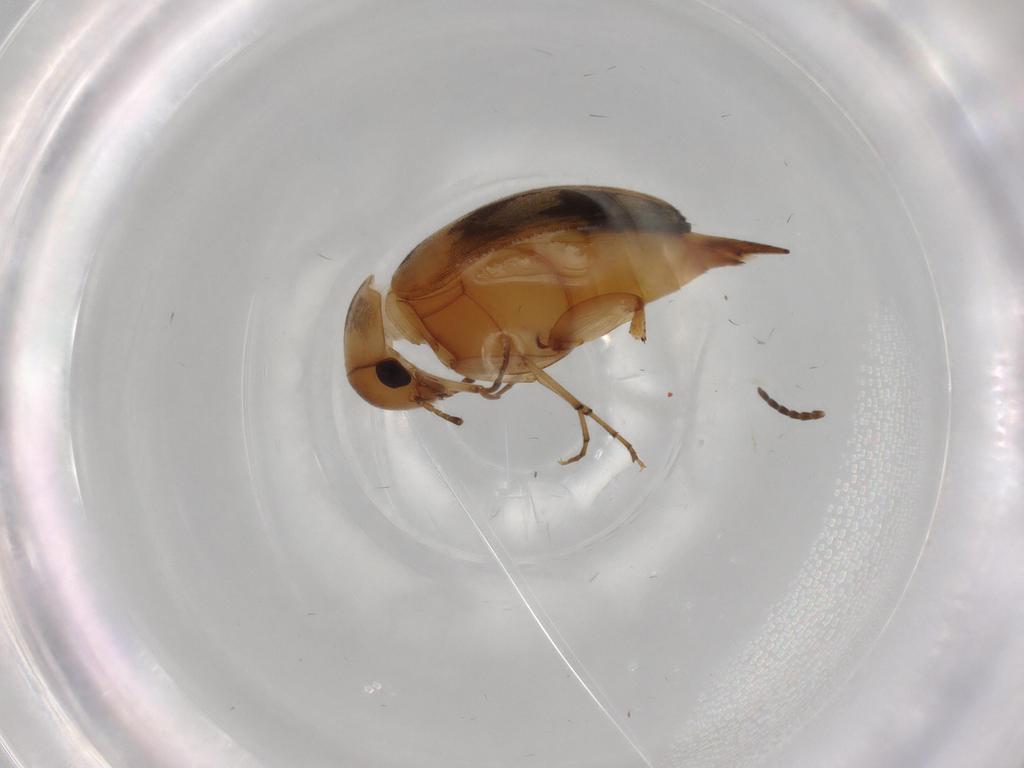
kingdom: Animalia
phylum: Arthropoda
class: Insecta
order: Coleoptera
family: Mordellidae
